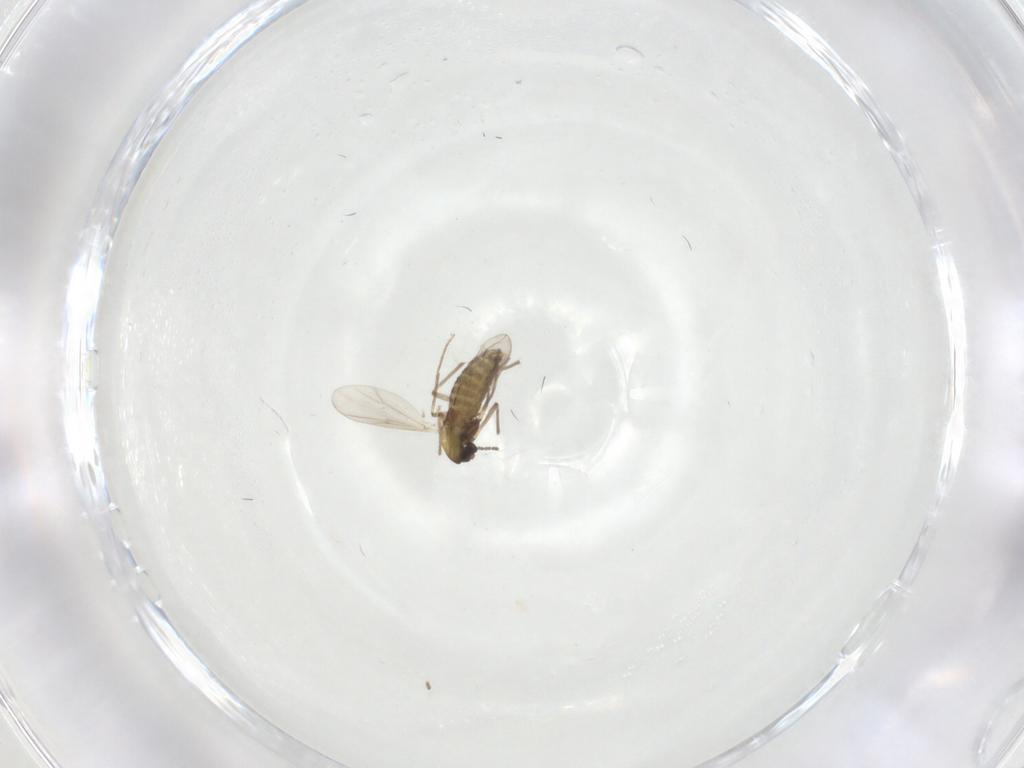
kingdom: Animalia
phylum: Arthropoda
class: Insecta
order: Diptera
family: Chironomidae
